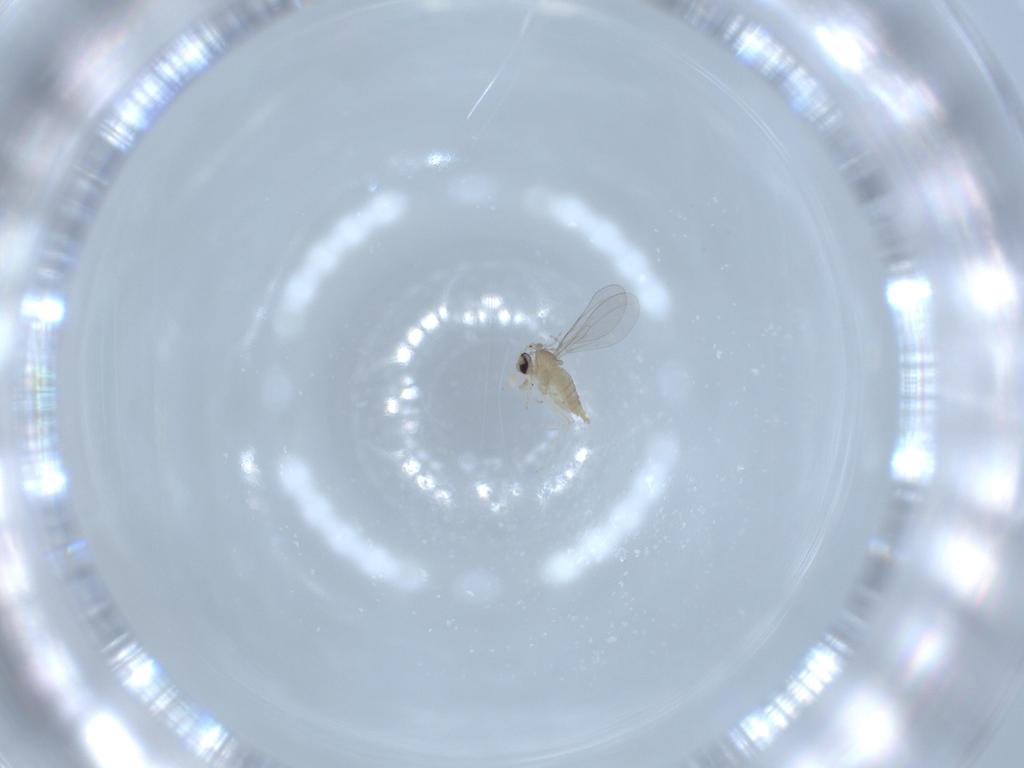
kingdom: Animalia
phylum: Arthropoda
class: Insecta
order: Diptera
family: Cecidomyiidae
